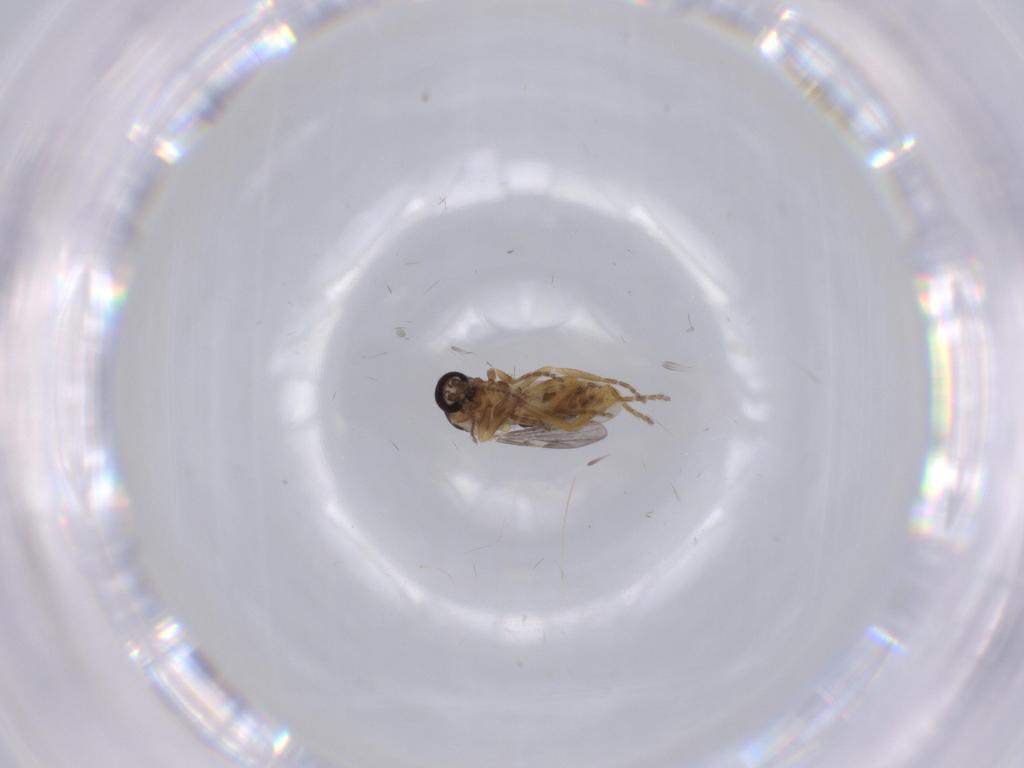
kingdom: Animalia
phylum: Arthropoda
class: Insecta
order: Diptera
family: Ceratopogonidae
